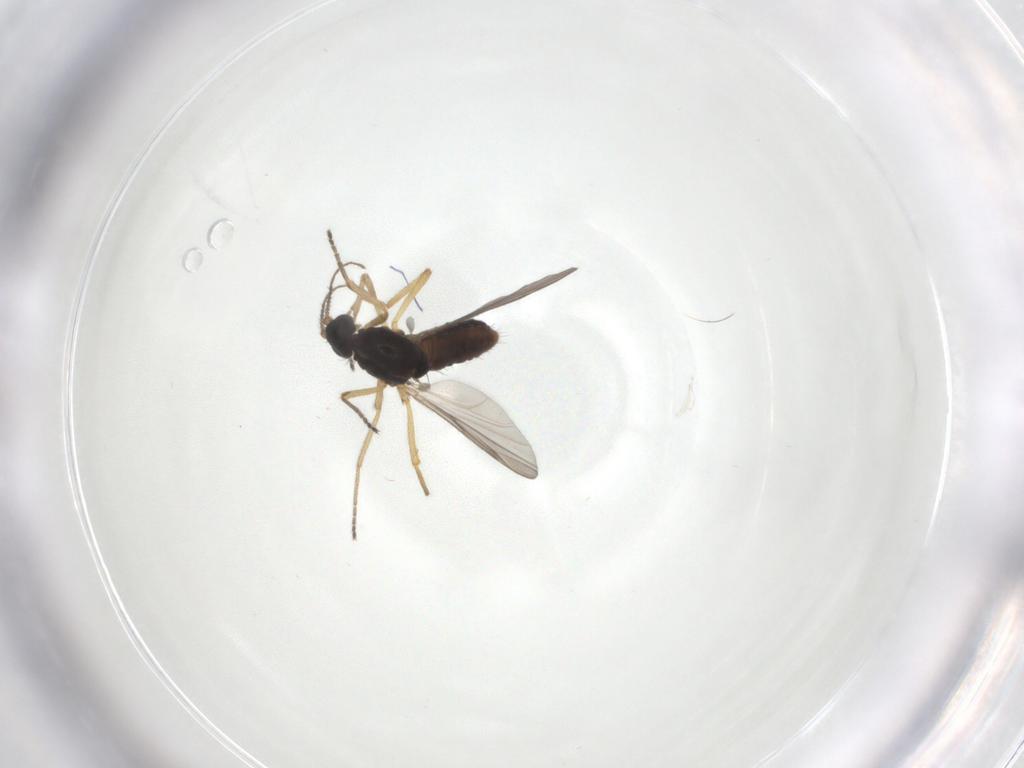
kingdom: Animalia
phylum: Arthropoda
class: Insecta
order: Diptera
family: Ceratopogonidae
